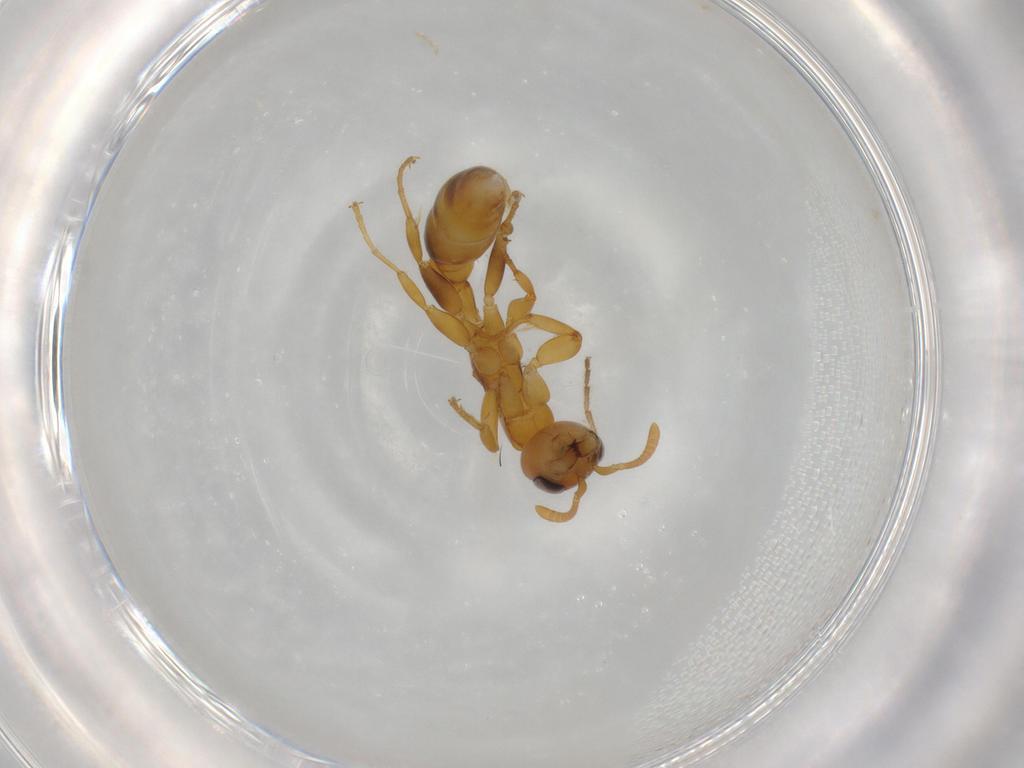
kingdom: Animalia
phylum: Arthropoda
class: Insecta
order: Hymenoptera
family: Formicidae
